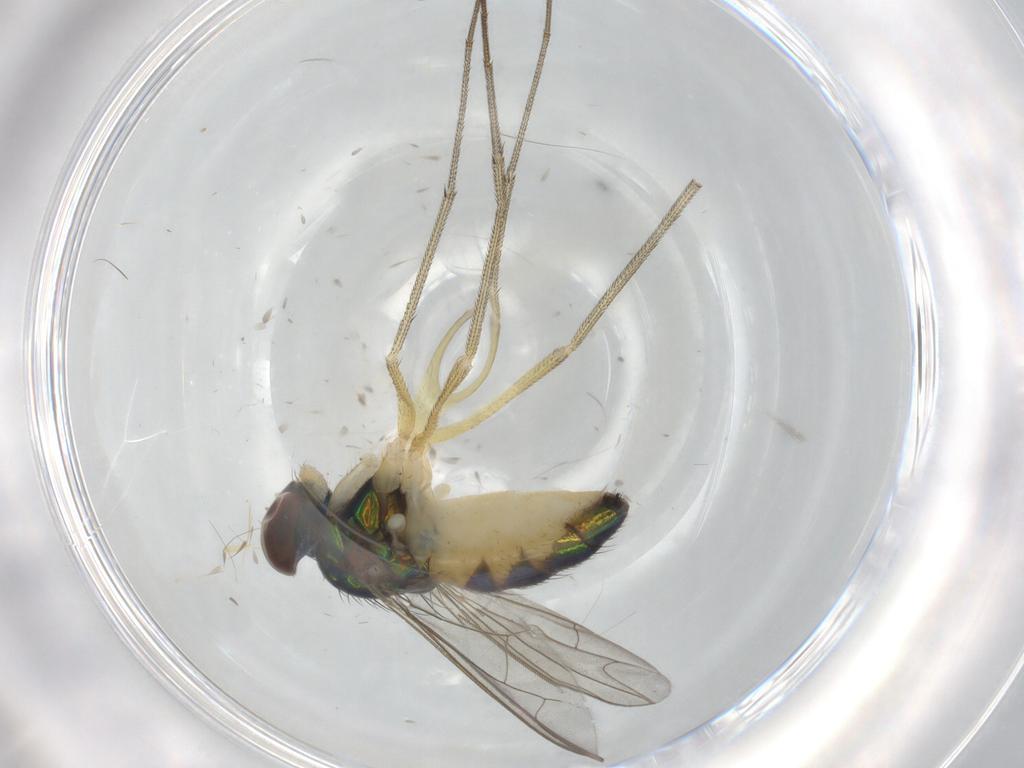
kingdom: Animalia
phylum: Arthropoda
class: Insecta
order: Diptera
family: Dolichopodidae
